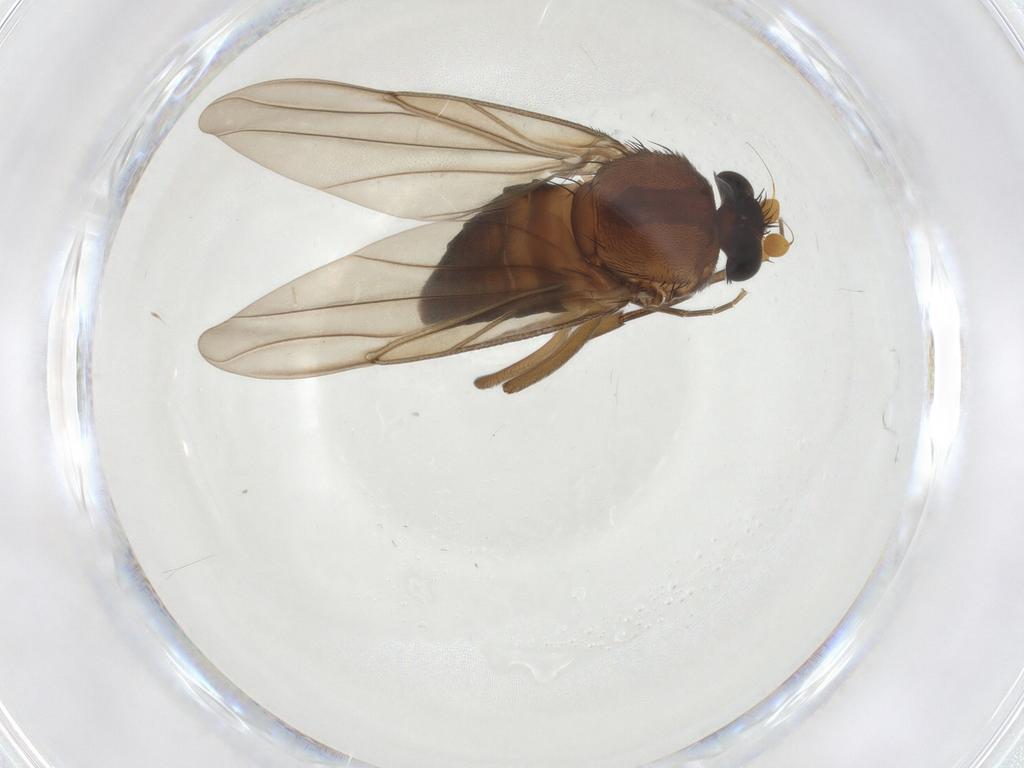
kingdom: Animalia
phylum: Arthropoda
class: Insecta
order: Diptera
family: Phoridae
